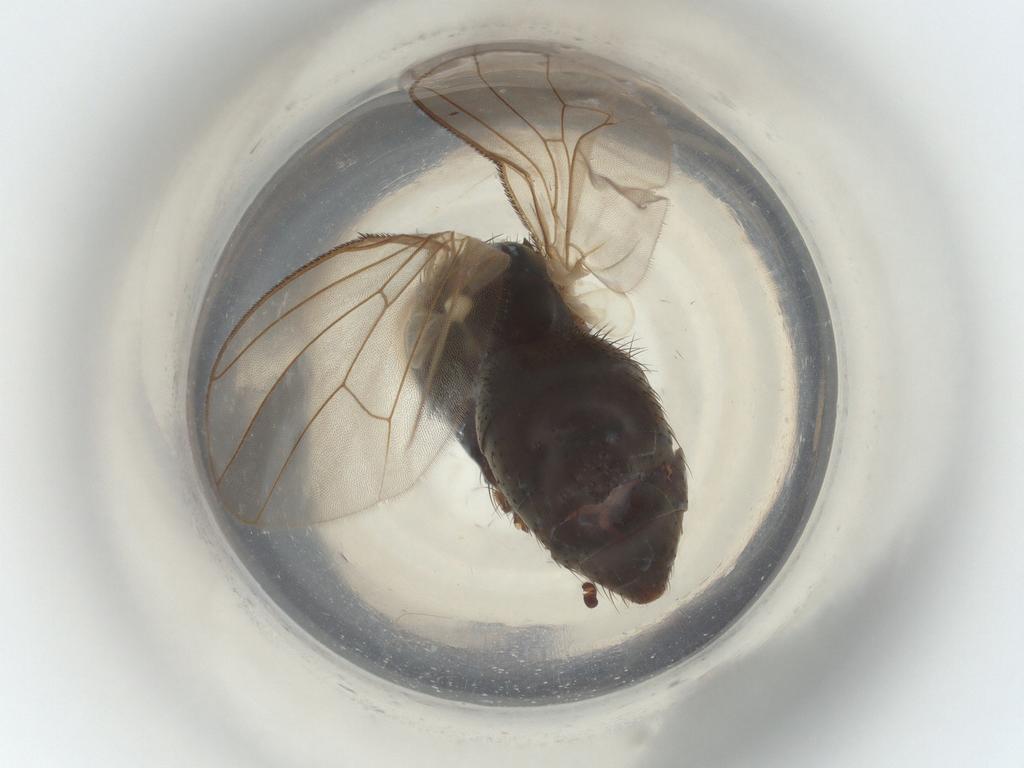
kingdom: Animalia
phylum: Arthropoda
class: Insecta
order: Diptera
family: Muscidae
